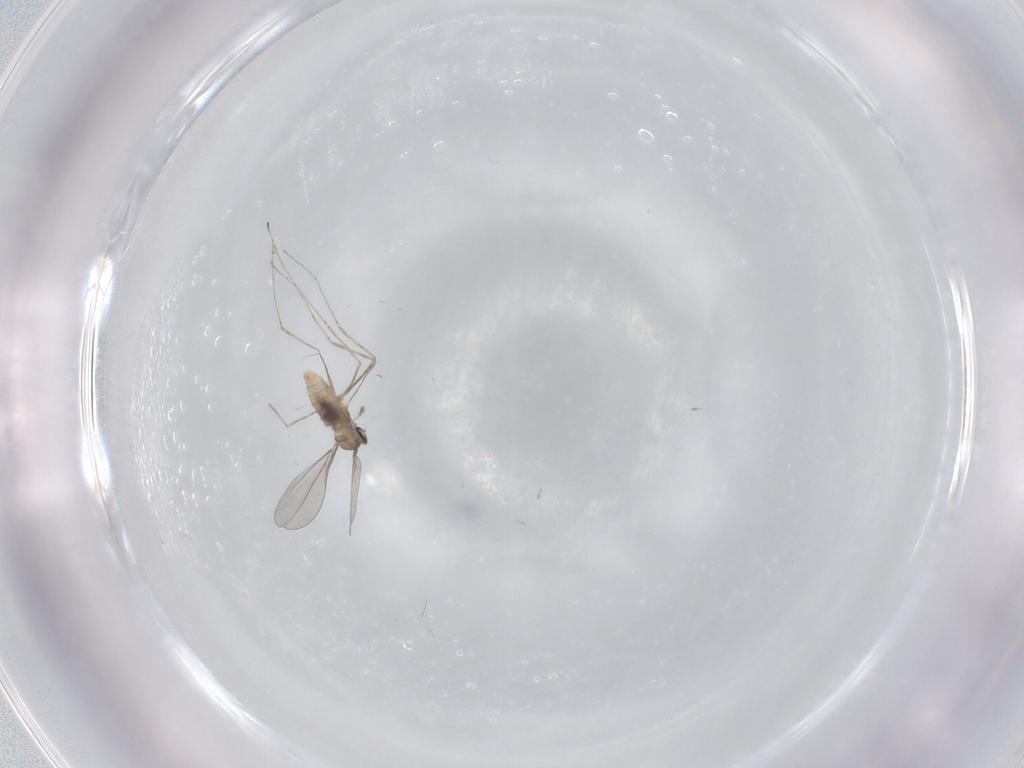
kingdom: Animalia
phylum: Arthropoda
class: Insecta
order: Diptera
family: Cecidomyiidae
